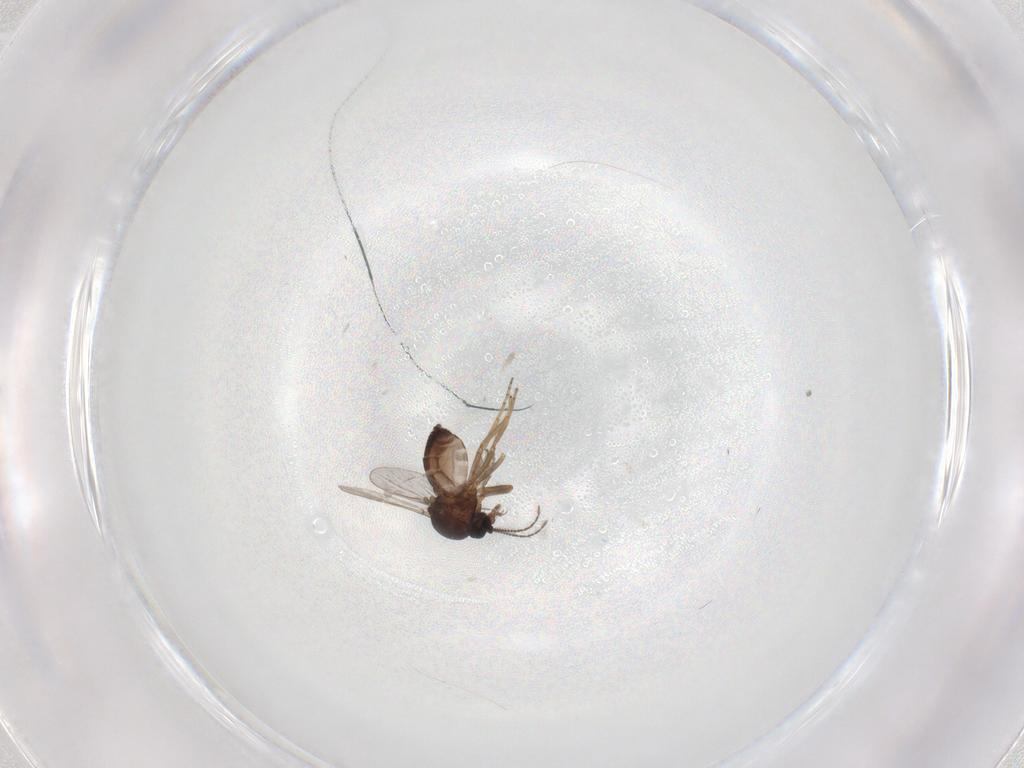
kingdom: Animalia
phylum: Arthropoda
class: Insecta
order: Diptera
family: Ceratopogonidae
